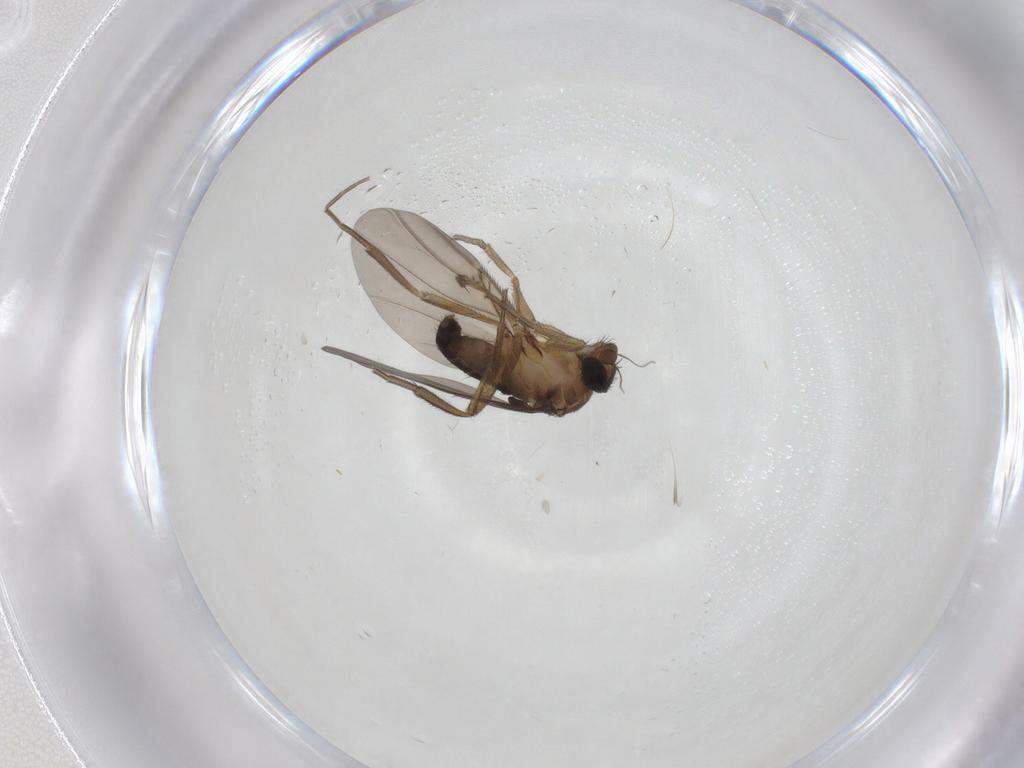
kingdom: Animalia
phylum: Arthropoda
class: Insecta
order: Diptera
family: Phoridae
